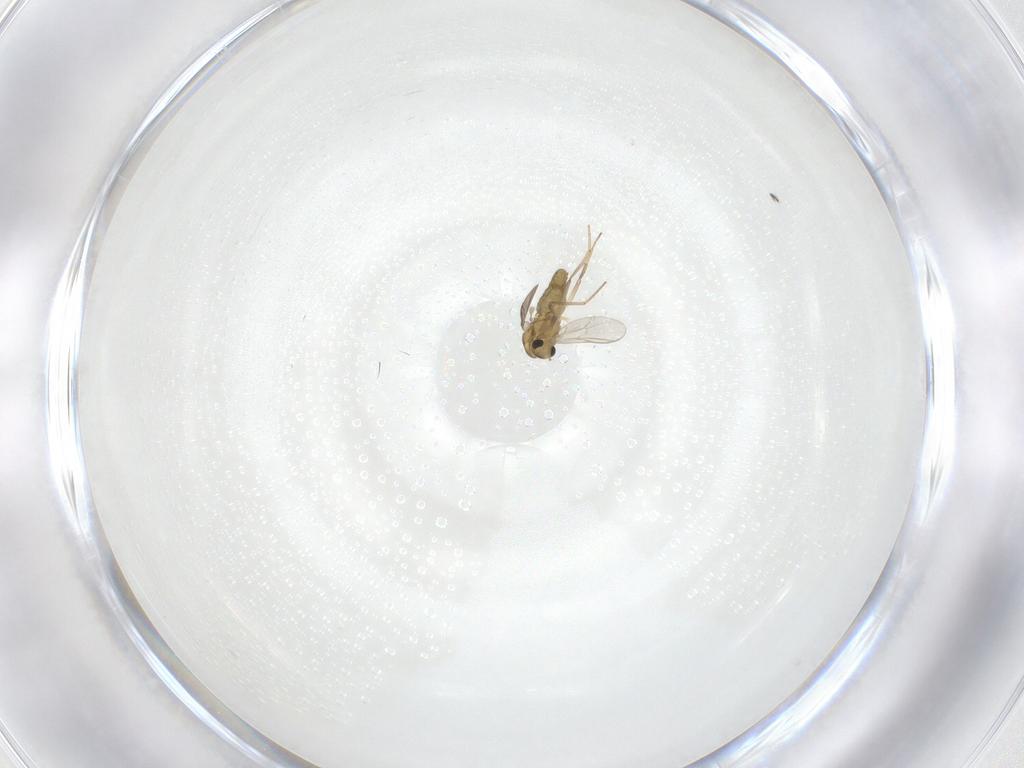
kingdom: Animalia
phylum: Arthropoda
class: Insecta
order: Diptera
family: Chironomidae
